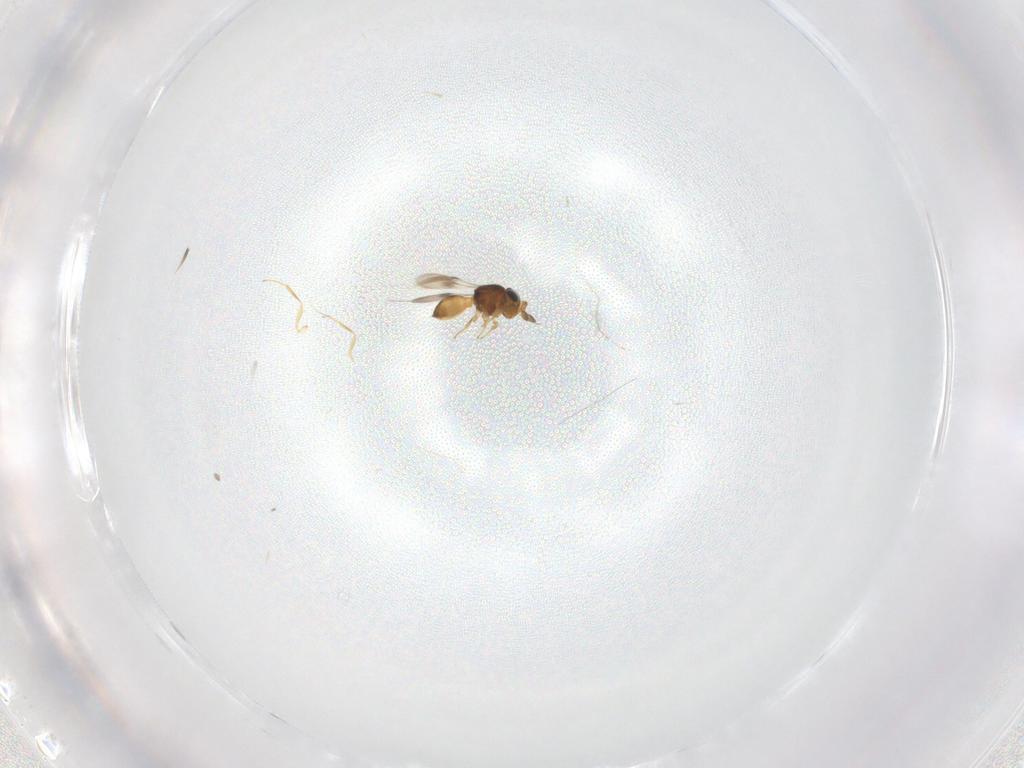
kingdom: Animalia
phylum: Arthropoda
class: Insecta
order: Hymenoptera
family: Scelionidae
